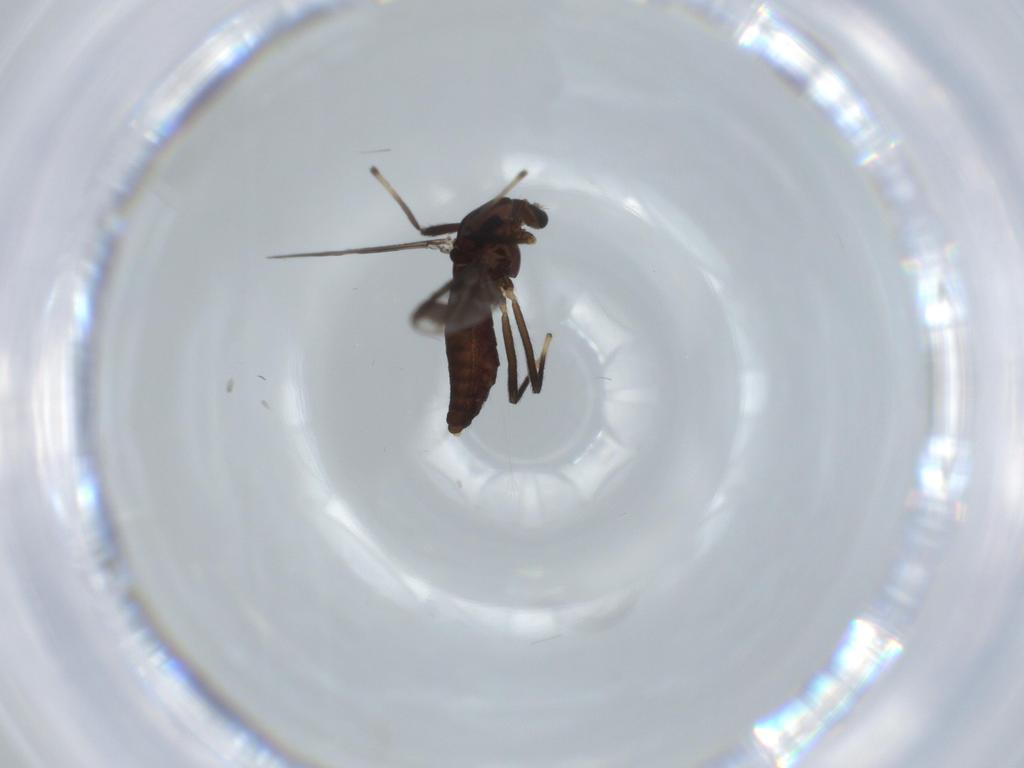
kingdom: Animalia
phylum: Arthropoda
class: Insecta
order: Diptera
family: Chironomidae
